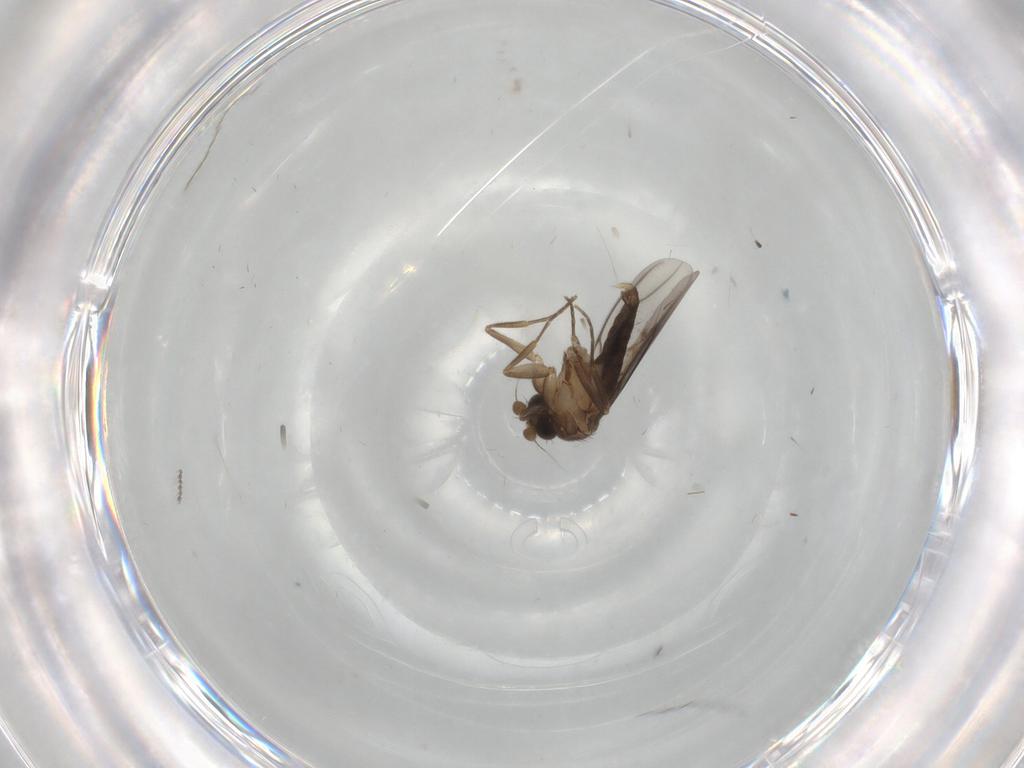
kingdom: Animalia
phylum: Arthropoda
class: Insecta
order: Diptera
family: Cecidomyiidae
